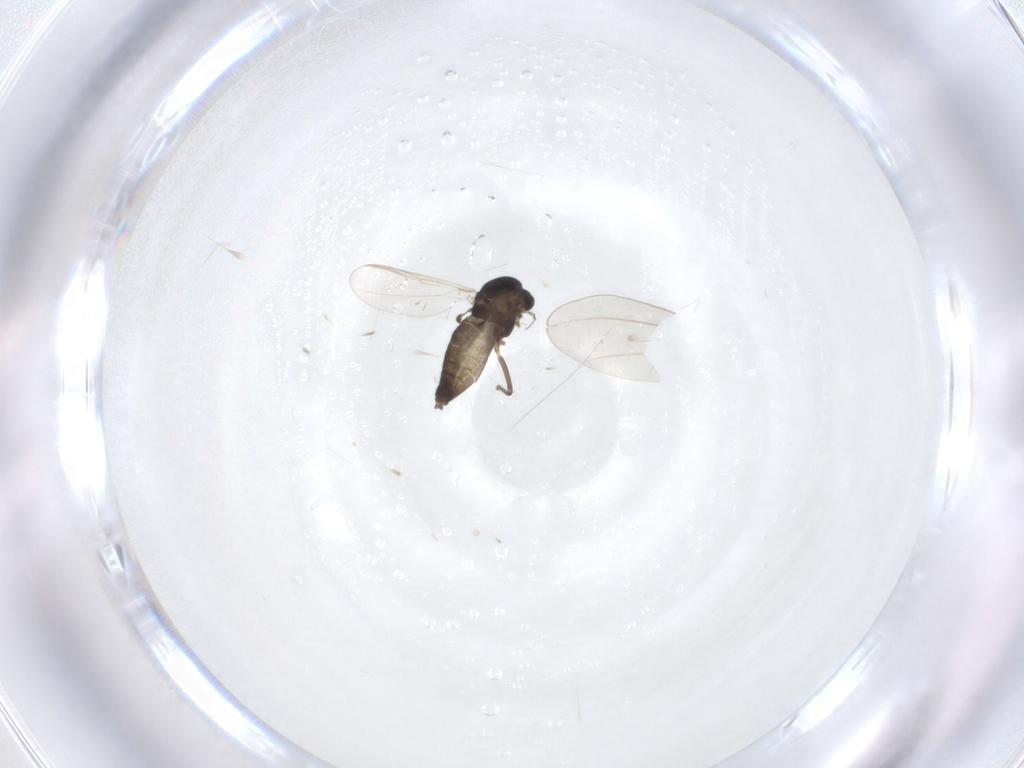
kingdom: Animalia
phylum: Arthropoda
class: Insecta
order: Diptera
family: Chironomidae
